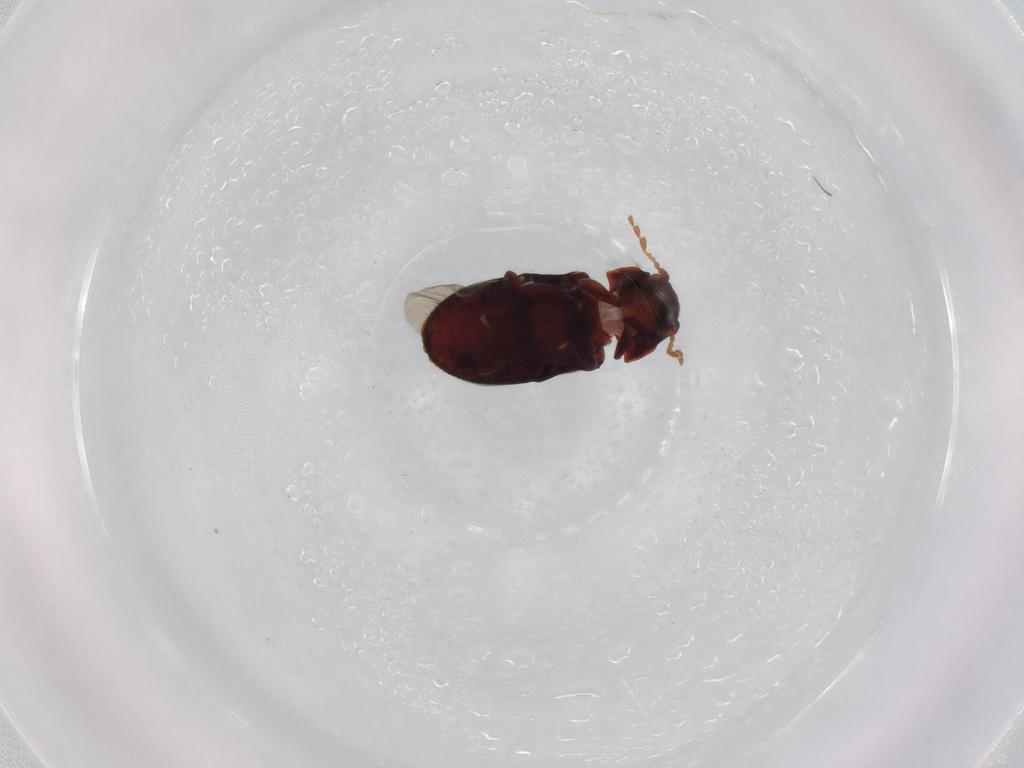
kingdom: Animalia
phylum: Arthropoda
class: Insecta
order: Coleoptera
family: Ptinidae
